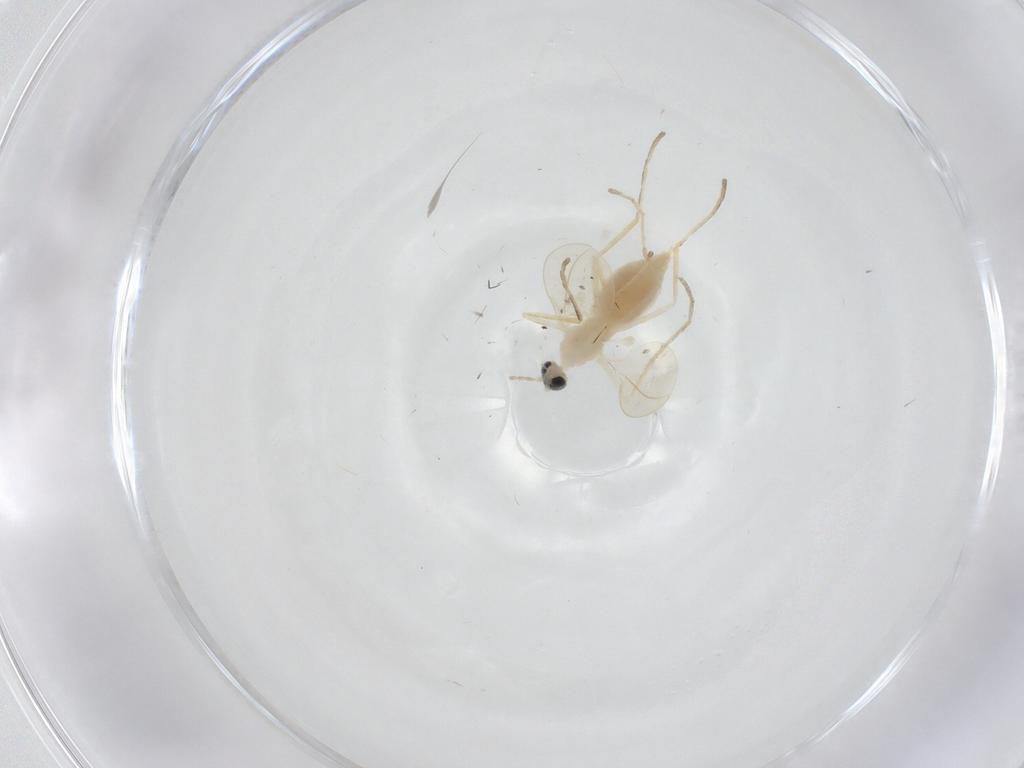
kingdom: Animalia
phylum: Arthropoda
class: Insecta
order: Diptera
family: Cecidomyiidae
